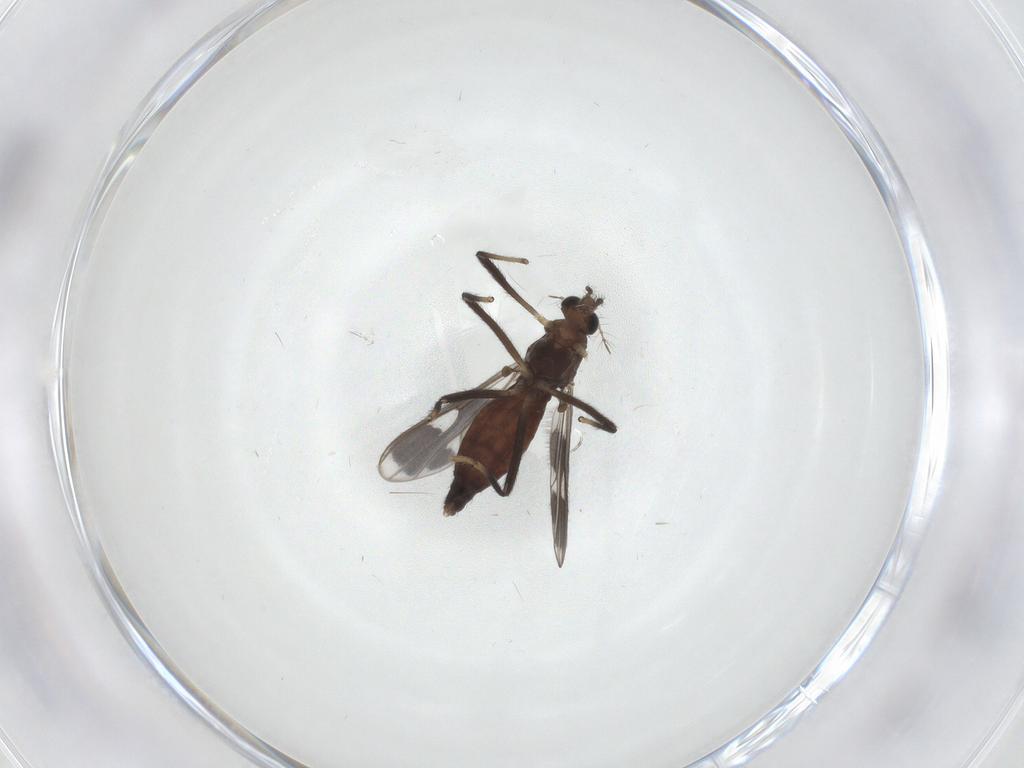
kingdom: Animalia
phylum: Arthropoda
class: Insecta
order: Diptera
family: Chironomidae
